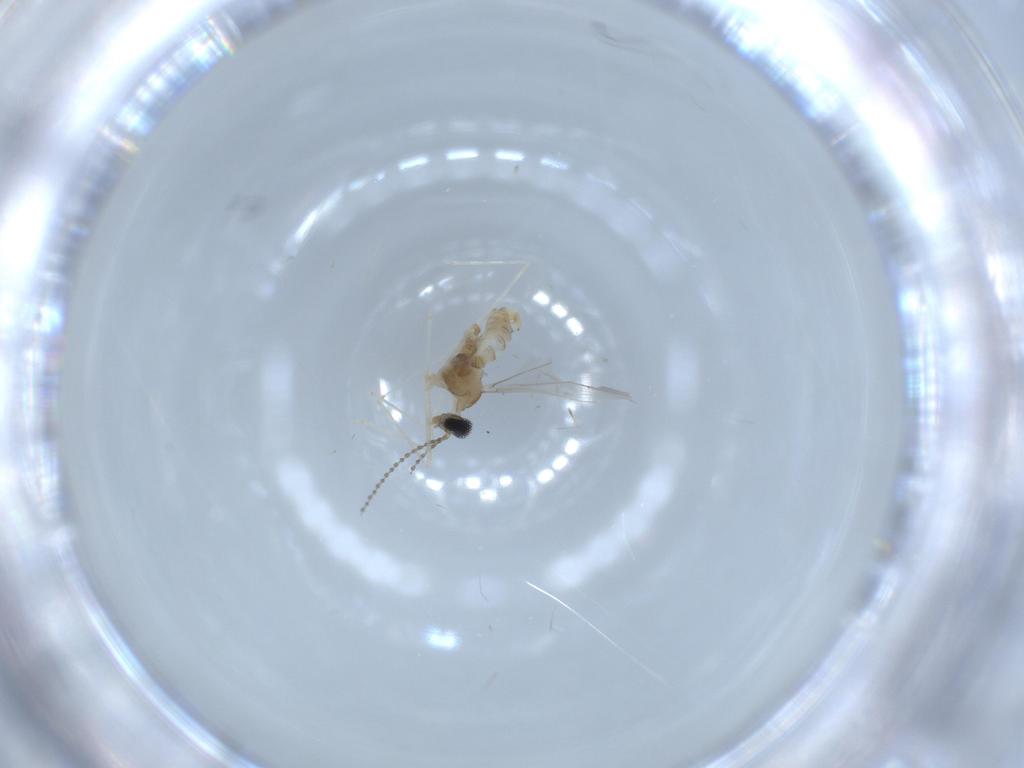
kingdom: Animalia
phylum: Arthropoda
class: Insecta
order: Diptera
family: Cecidomyiidae
